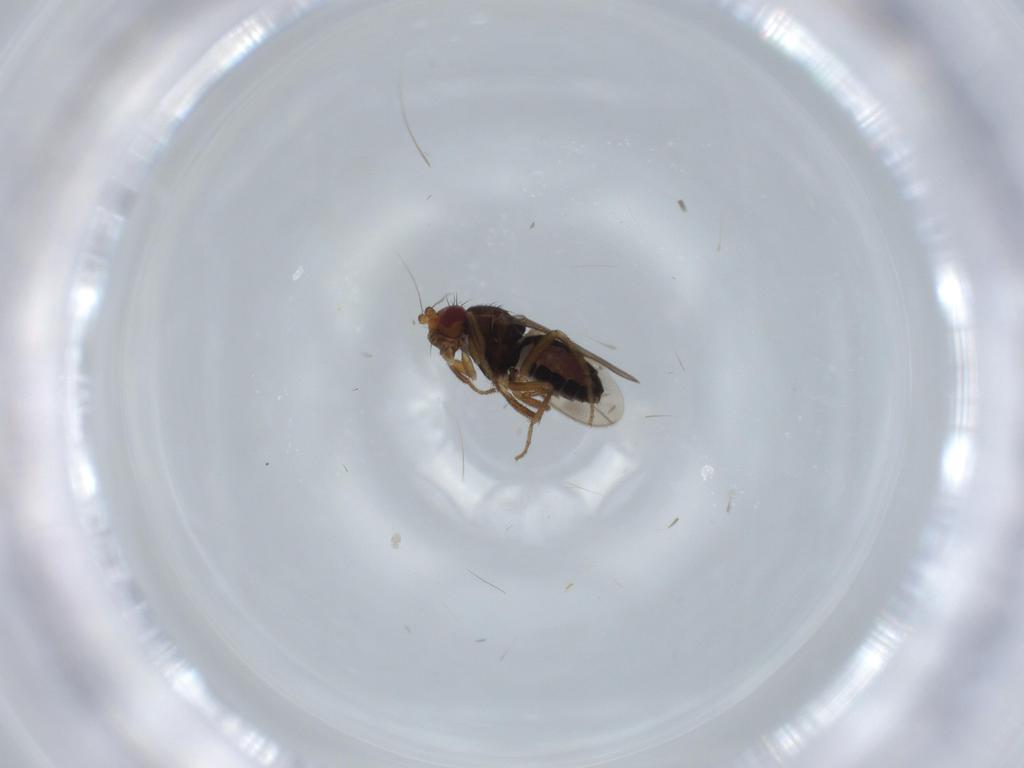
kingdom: Animalia
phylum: Arthropoda
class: Insecta
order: Diptera
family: Sphaeroceridae
